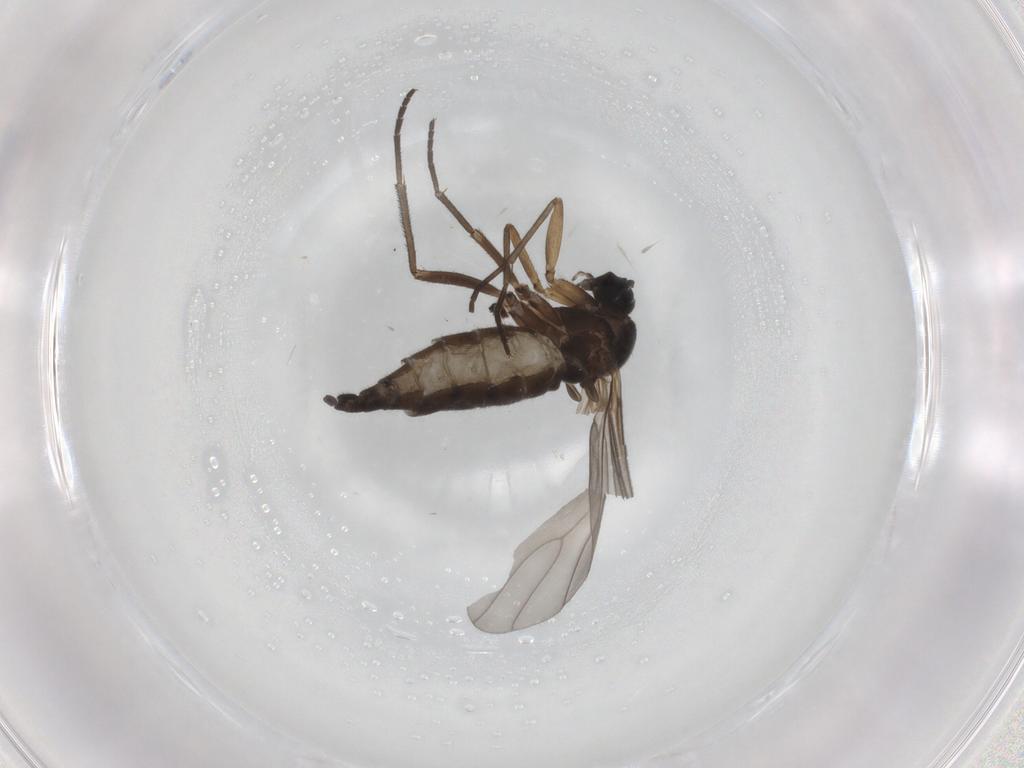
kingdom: Animalia
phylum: Arthropoda
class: Insecta
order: Diptera
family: Sciaridae
